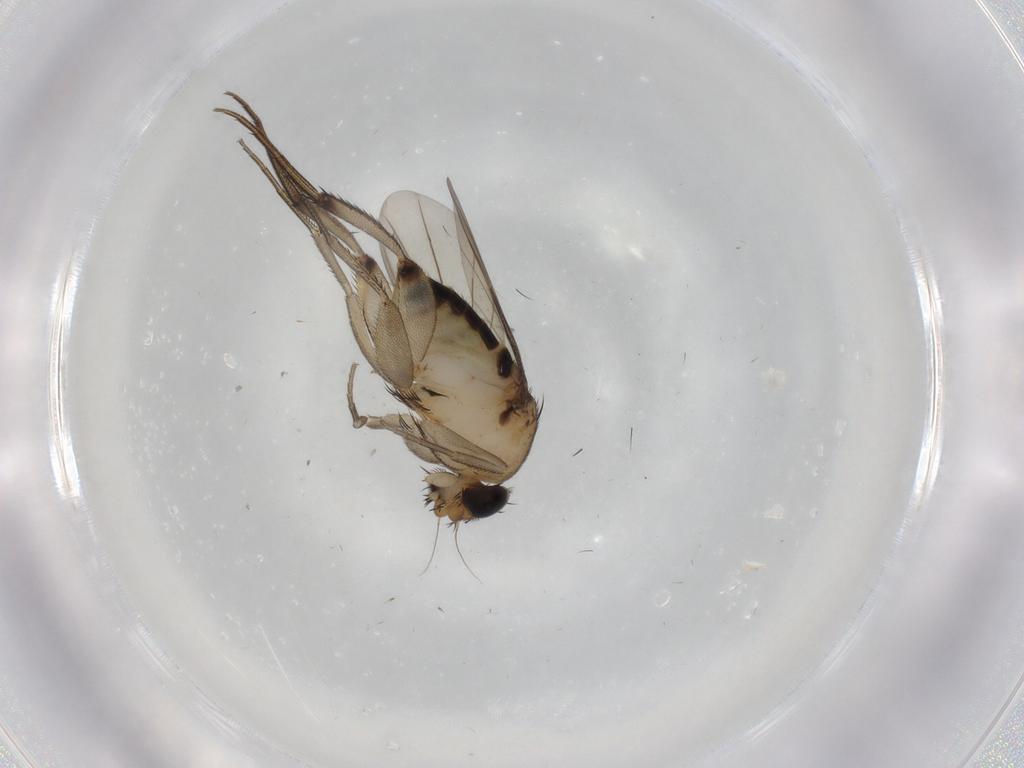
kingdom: Animalia
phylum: Arthropoda
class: Insecta
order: Diptera
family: Phoridae
